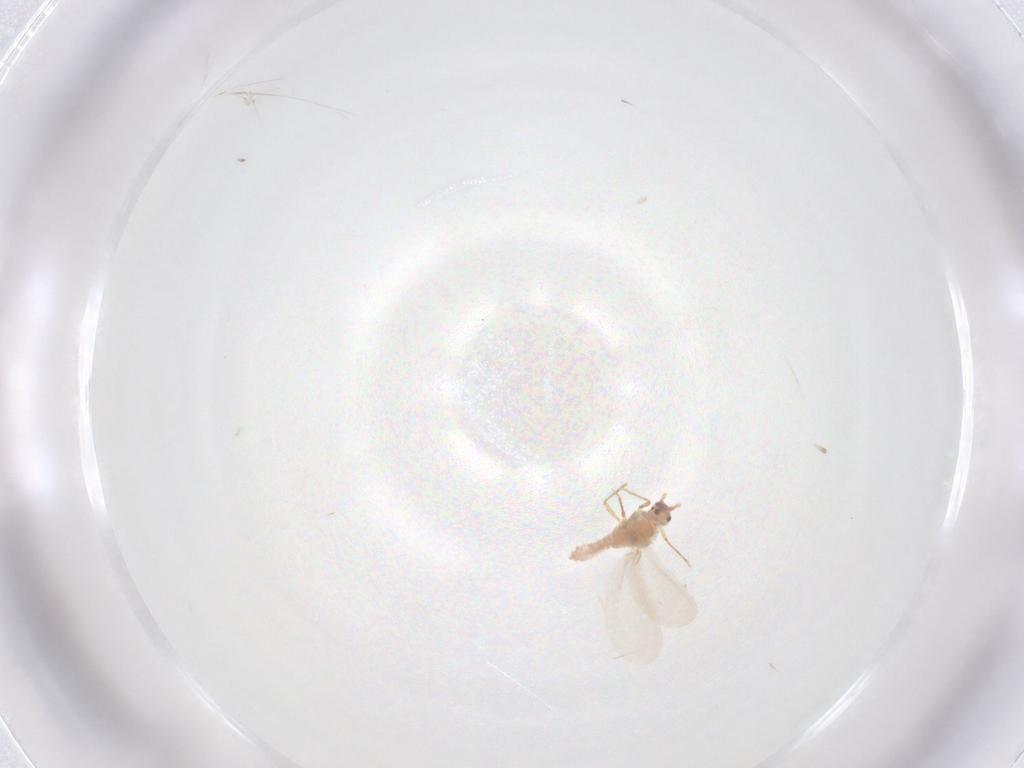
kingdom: Animalia
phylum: Arthropoda
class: Insecta
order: Hemiptera
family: Pseudococcidae
